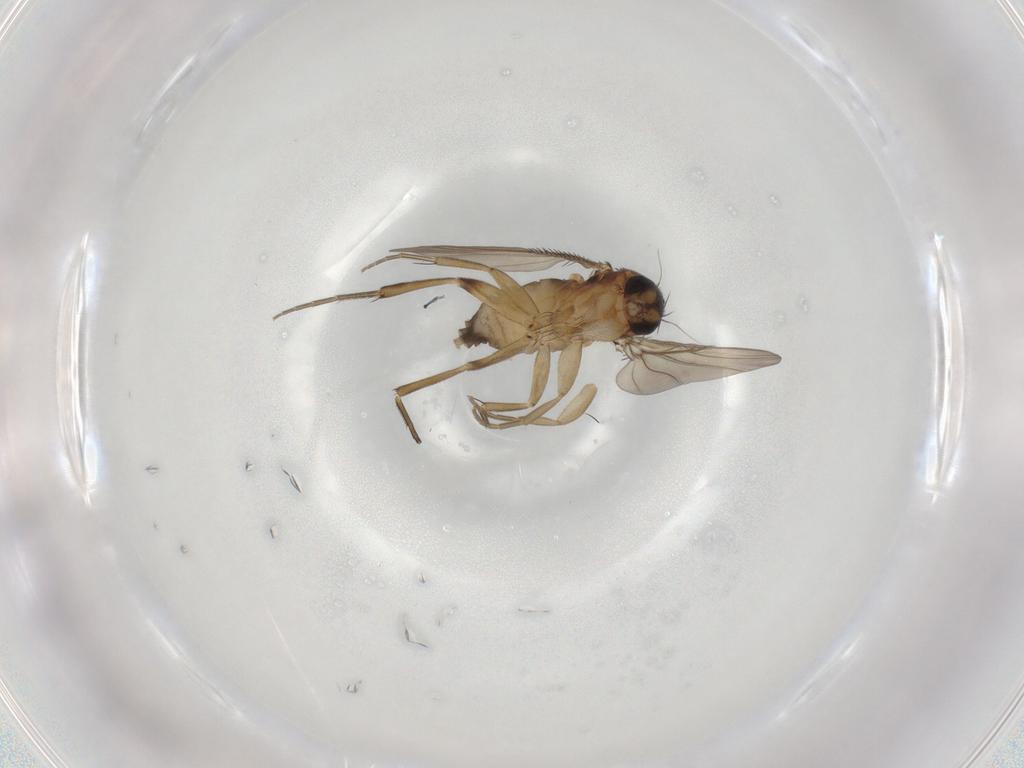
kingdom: Animalia
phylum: Arthropoda
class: Insecta
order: Diptera
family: Phoridae
